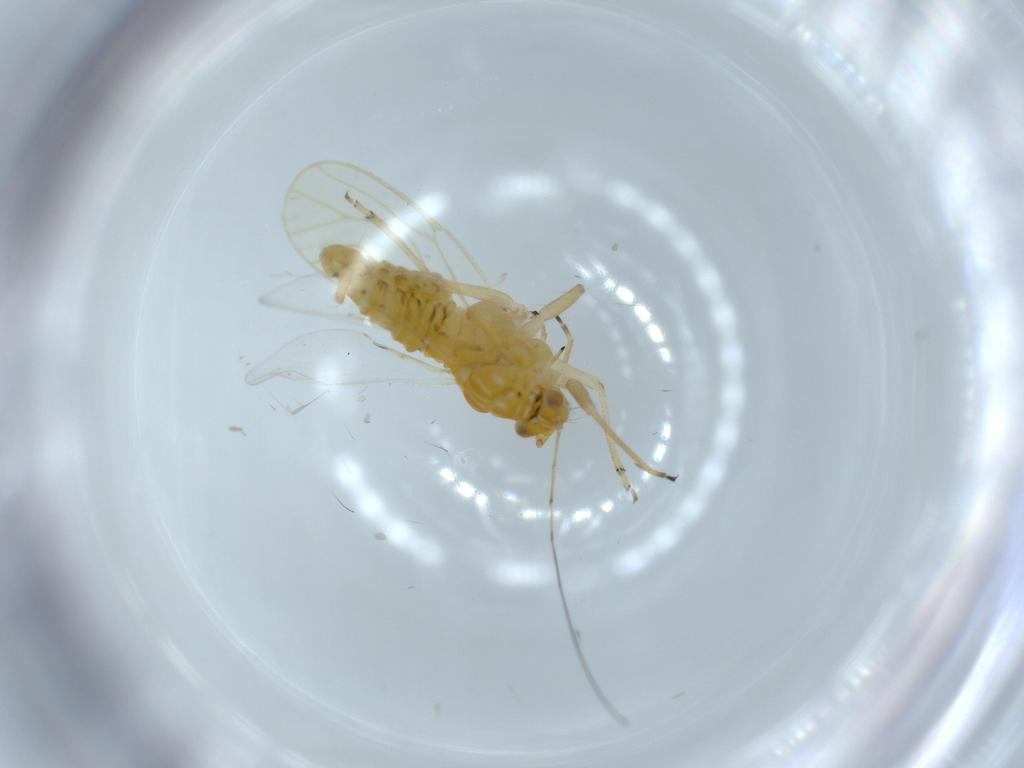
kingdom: Animalia
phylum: Arthropoda
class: Insecta
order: Hemiptera
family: Psyllidae
